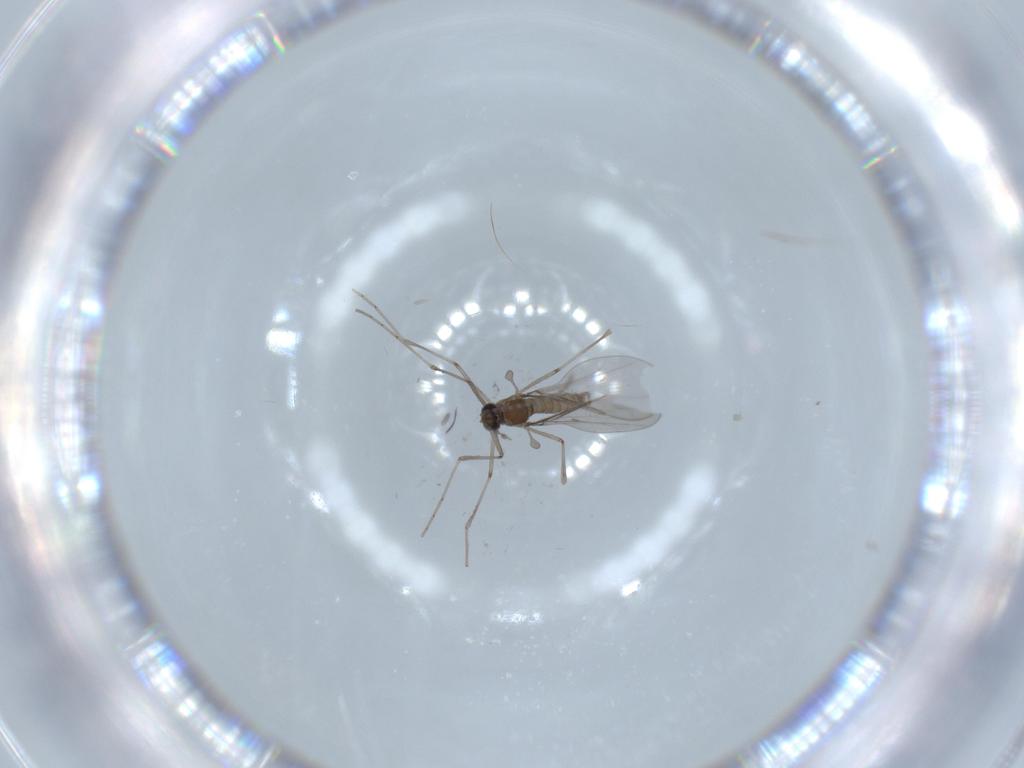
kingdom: Animalia
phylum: Arthropoda
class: Insecta
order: Diptera
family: Cecidomyiidae
